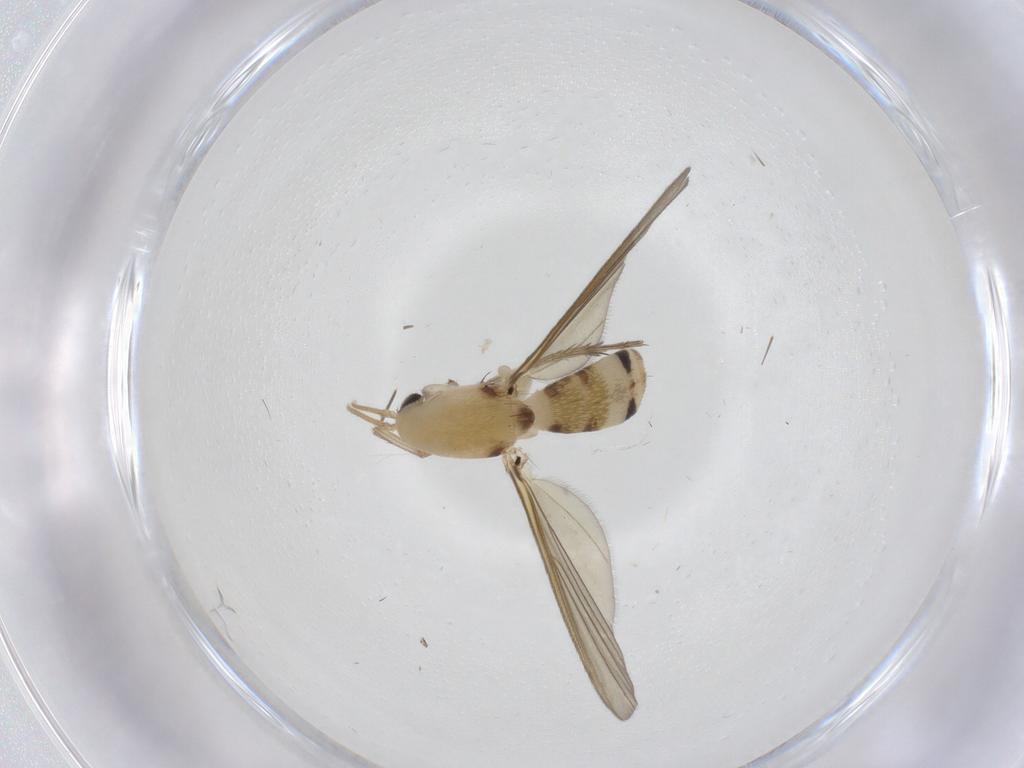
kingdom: Animalia
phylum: Arthropoda
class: Insecta
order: Diptera
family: Mycetophilidae
